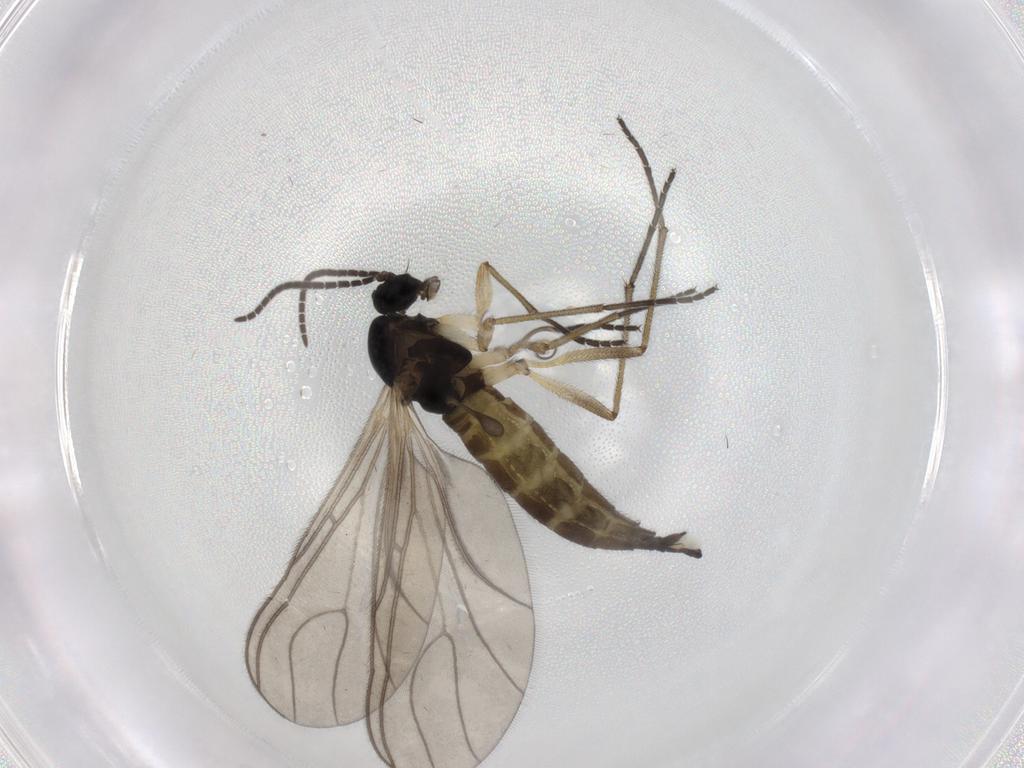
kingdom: Animalia
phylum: Arthropoda
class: Insecta
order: Diptera
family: Sciaridae
